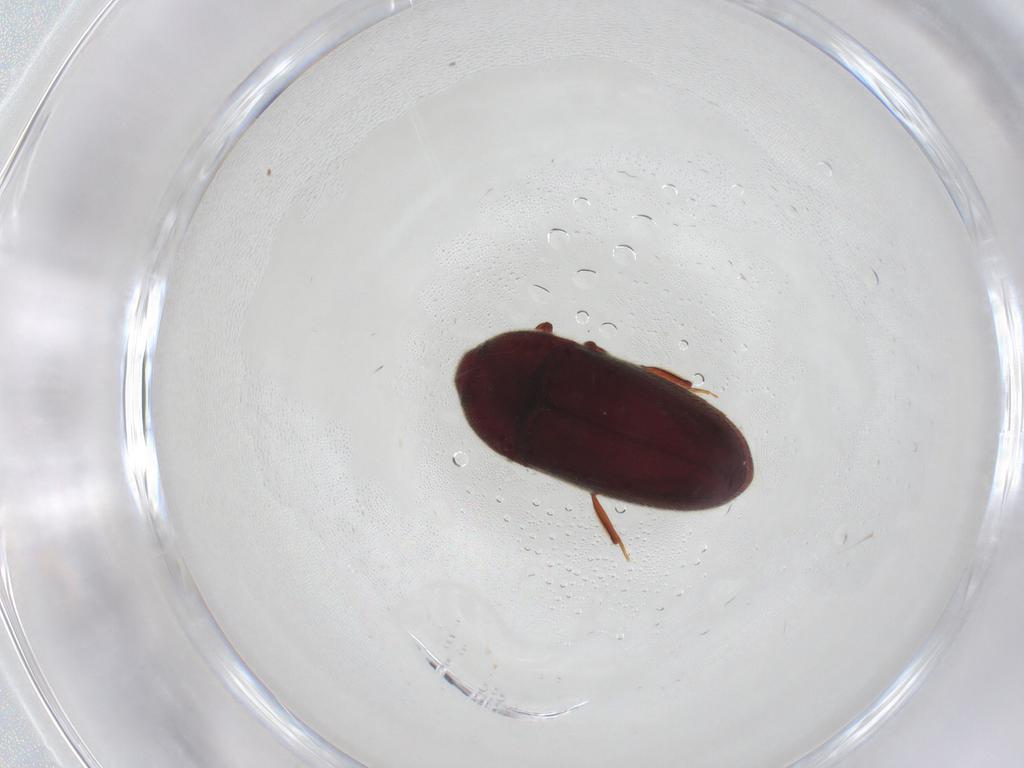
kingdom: Animalia
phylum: Arthropoda
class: Insecta
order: Coleoptera
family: Throscidae
